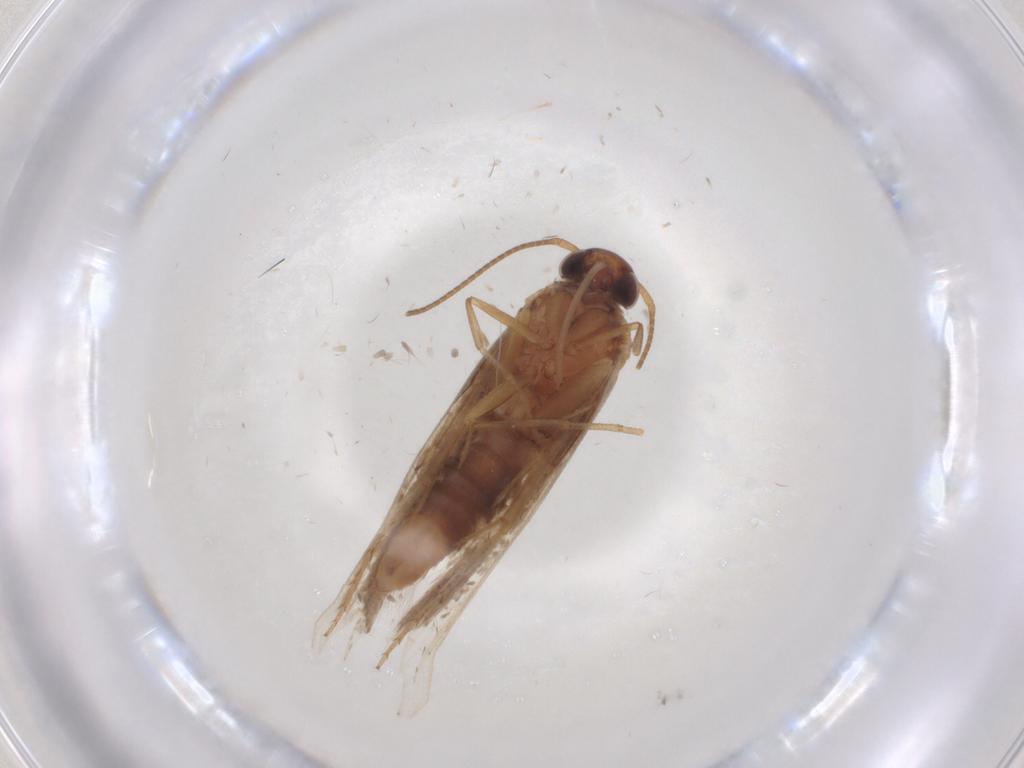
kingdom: Animalia
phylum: Arthropoda
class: Insecta
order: Lepidoptera
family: Gelechiidae
